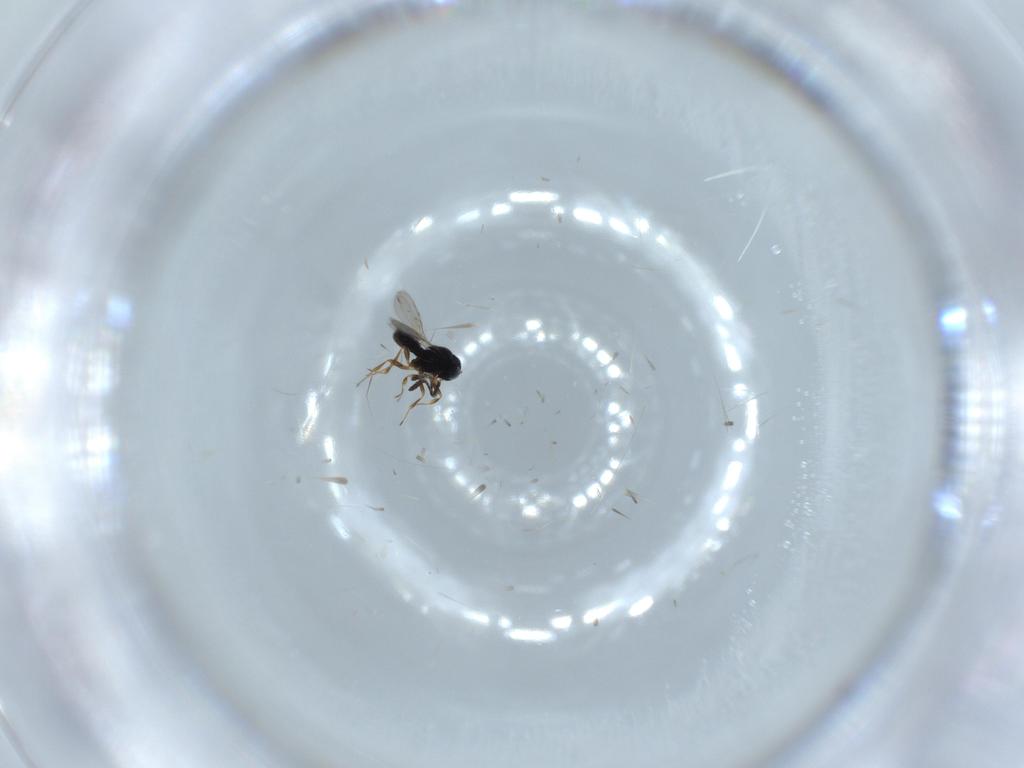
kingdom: Animalia
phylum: Arthropoda
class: Insecta
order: Hymenoptera
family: Scelionidae
